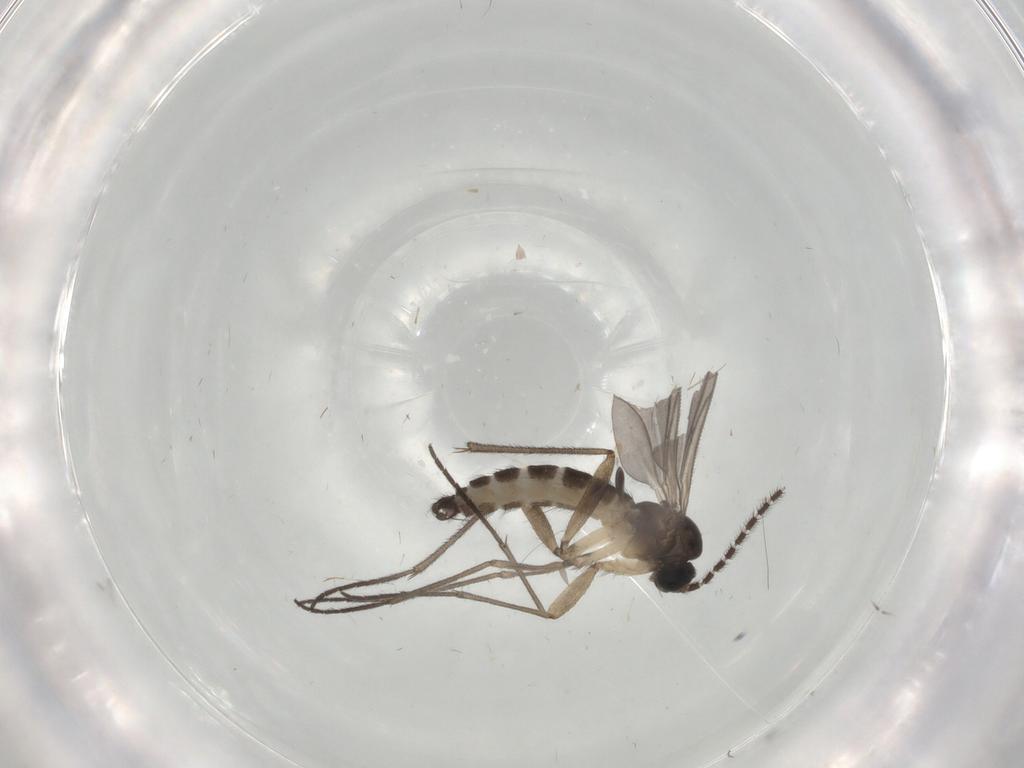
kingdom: Animalia
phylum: Arthropoda
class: Insecta
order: Diptera
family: Sciaridae
